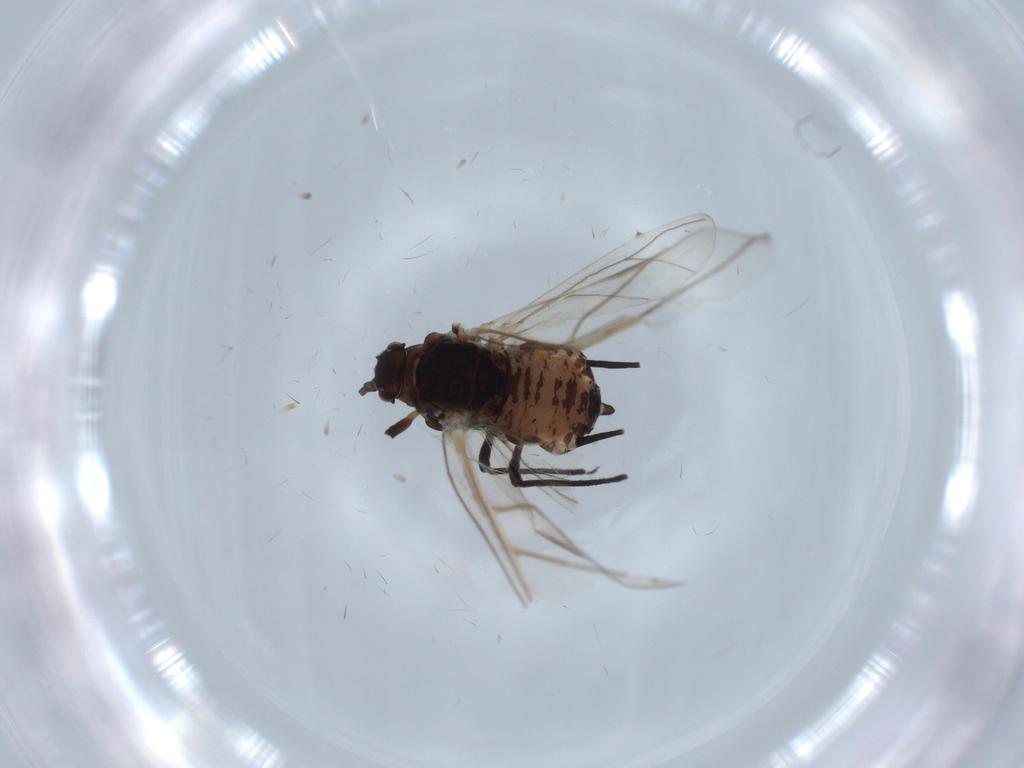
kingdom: Animalia
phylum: Arthropoda
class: Insecta
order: Hemiptera
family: Aphididae
